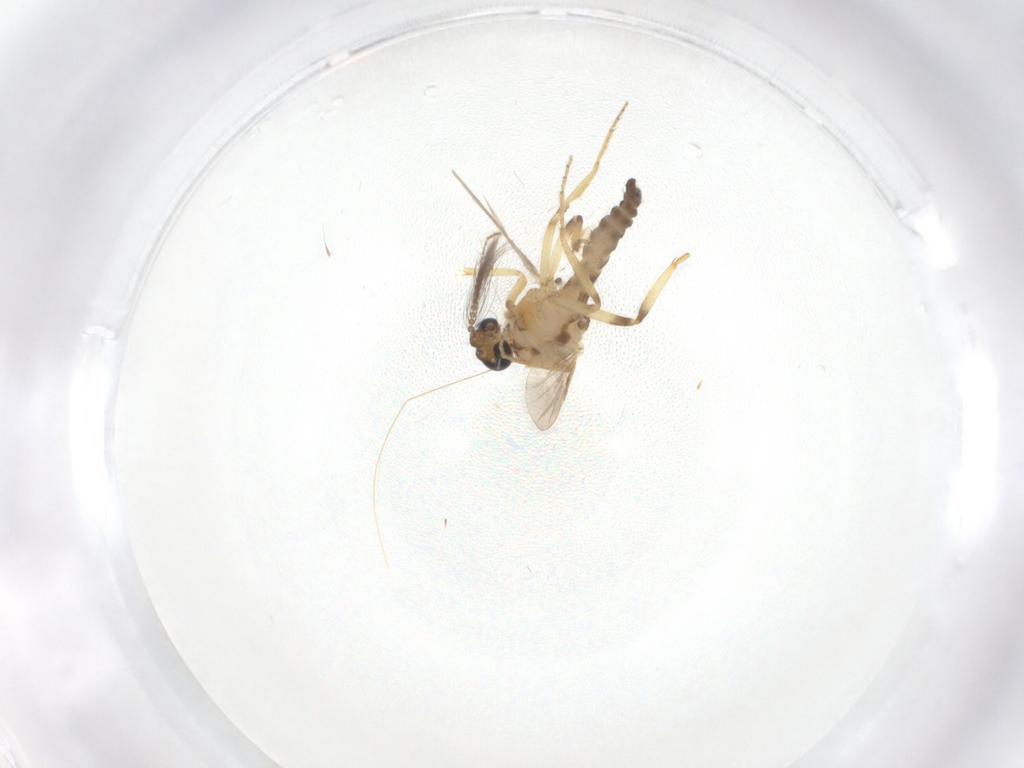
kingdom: Animalia
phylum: Arthropoda
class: Insecta
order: Diptera
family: Ceratopogonidae
